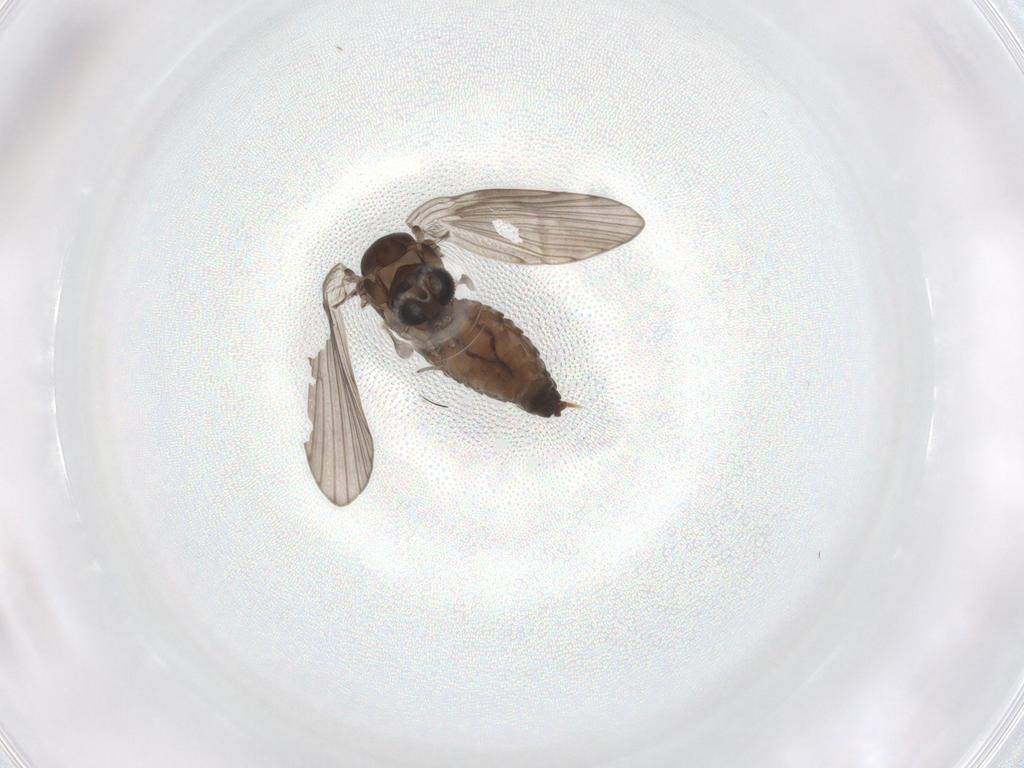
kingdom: Animalia
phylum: Arthropoda
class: Insecta
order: Diptera
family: Psychodidae
